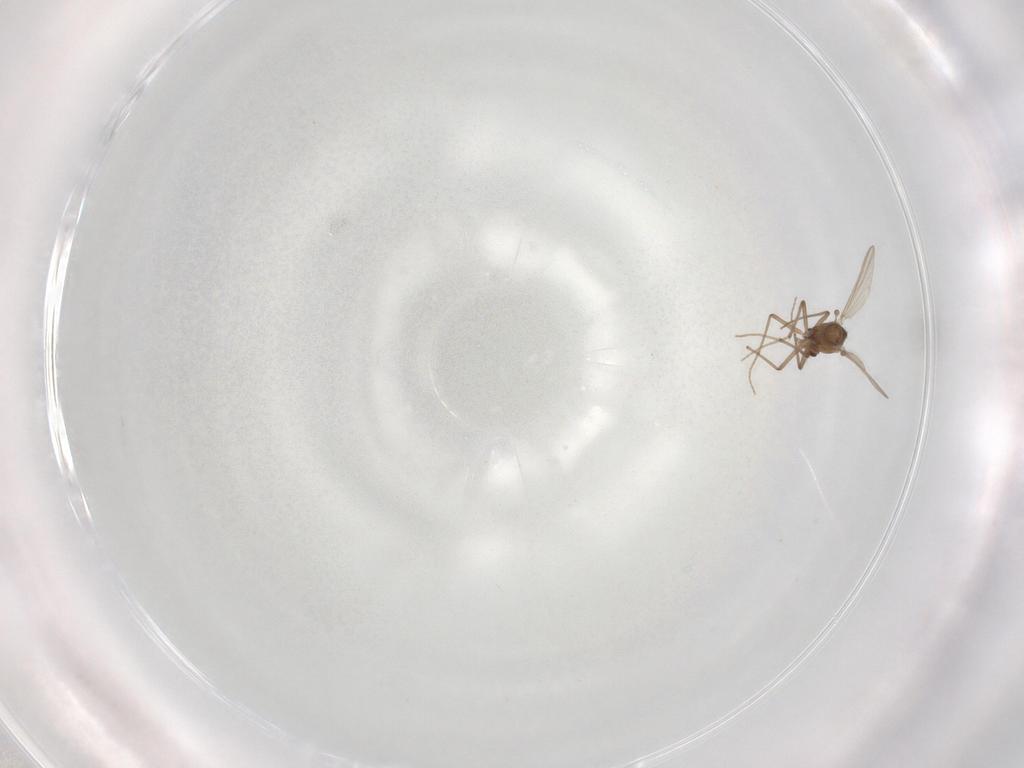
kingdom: Animalia
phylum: Arthropoda
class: Insecta
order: Diptera
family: Chironomidae
